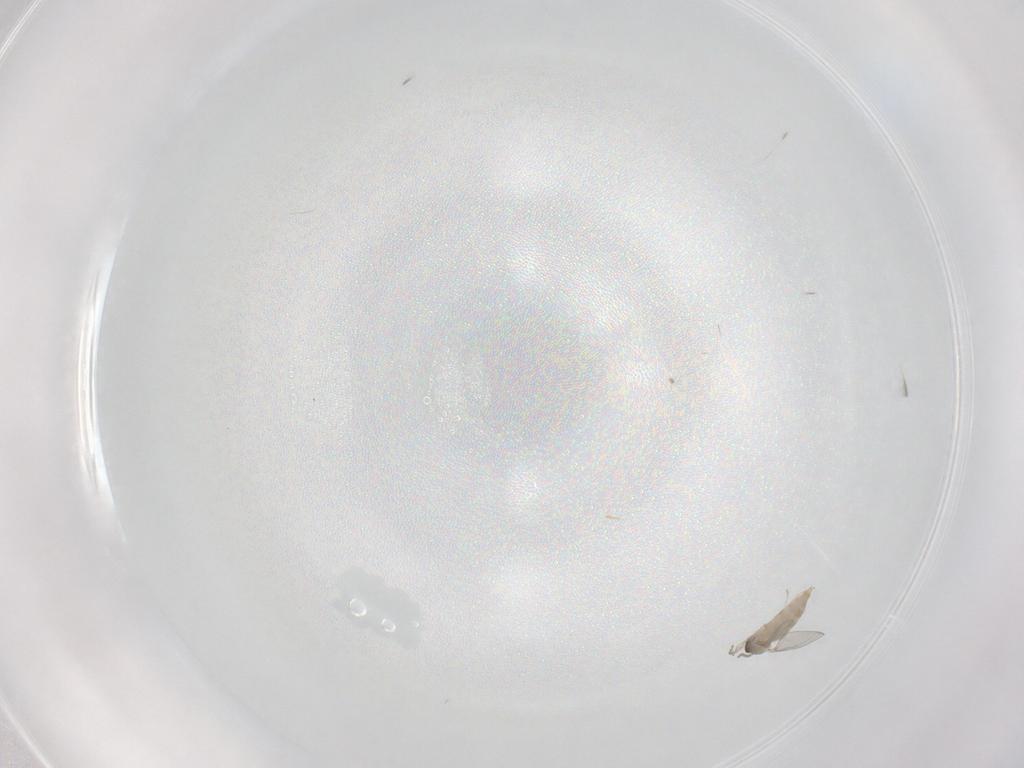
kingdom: Animalia
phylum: Arthropoda
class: Insecta
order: Diptera
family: Cecidomyiidae
